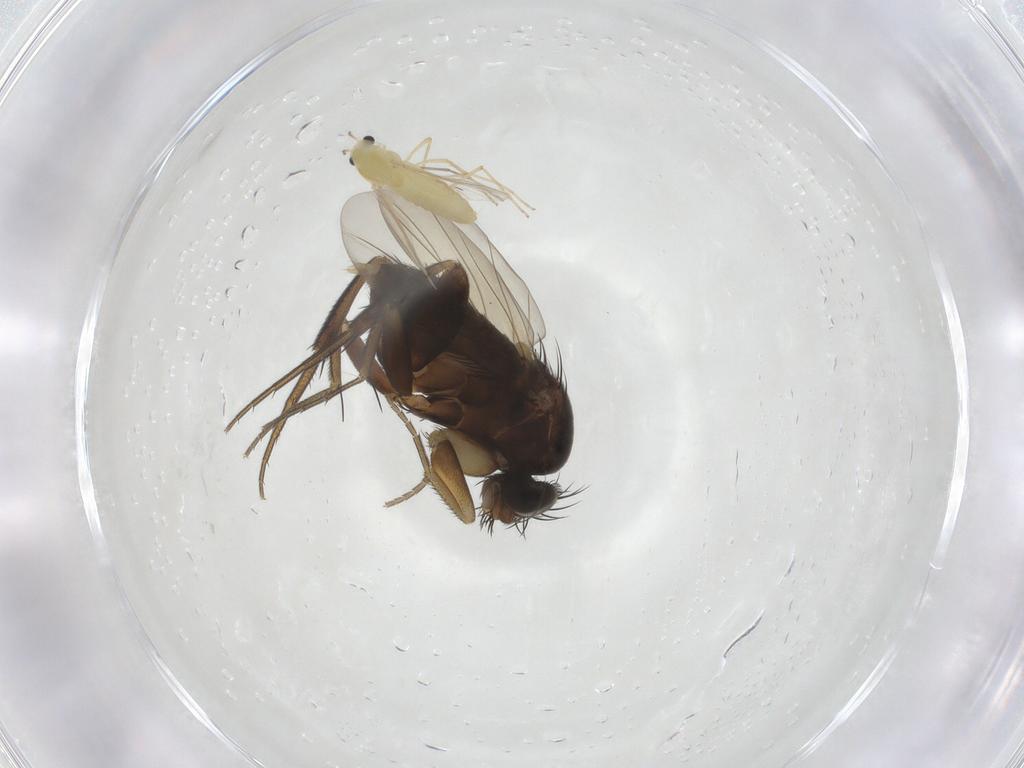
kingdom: Animalia
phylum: Arthropoda
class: Insecta
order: Diptera
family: Chironomidae
